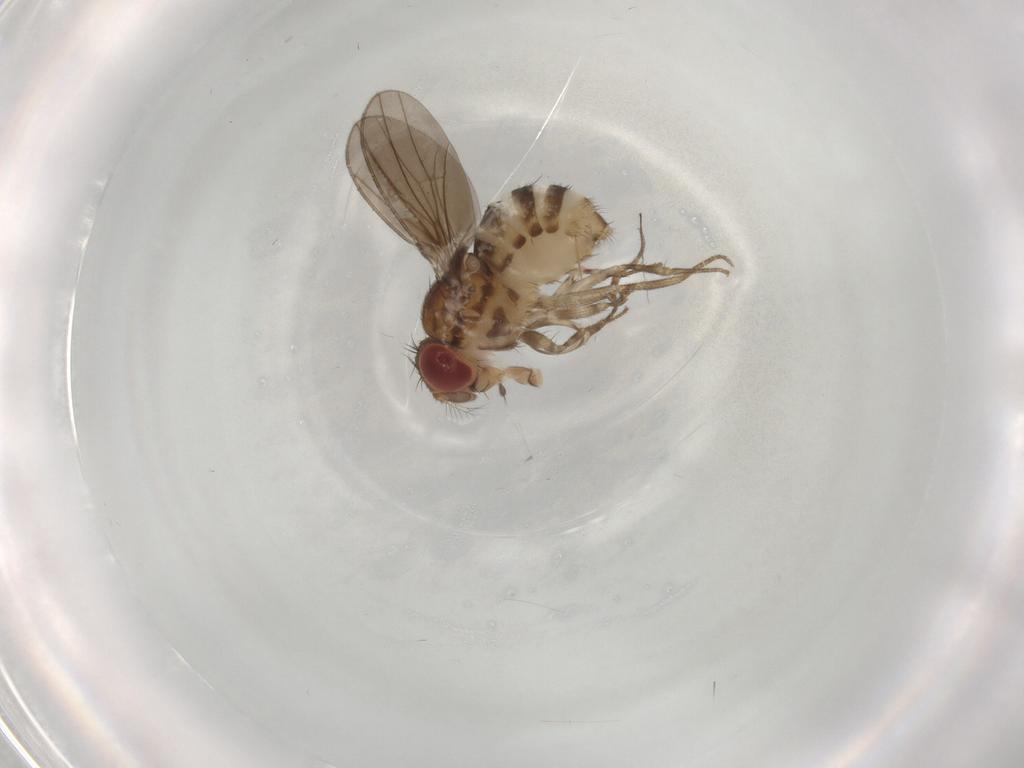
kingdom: Animalia
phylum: Arthropoda
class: Insecta
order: Diptera
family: Drosophilidae
